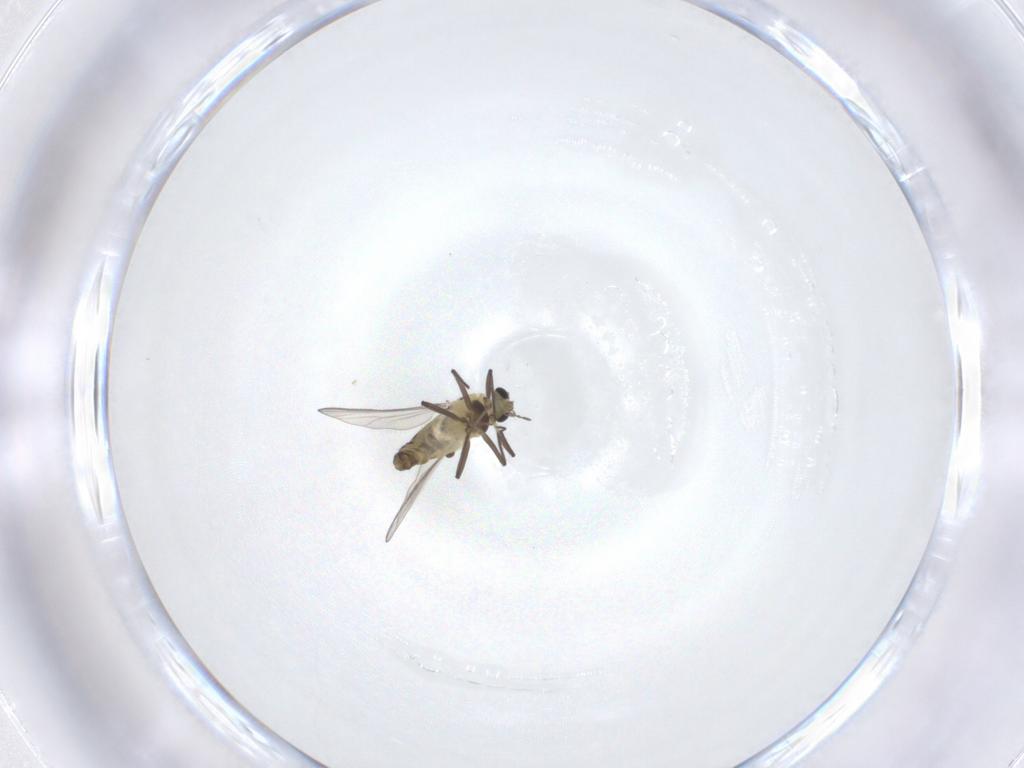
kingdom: Animalia
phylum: Arthropoda
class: Insecta
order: Diptera
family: Chironomidae
